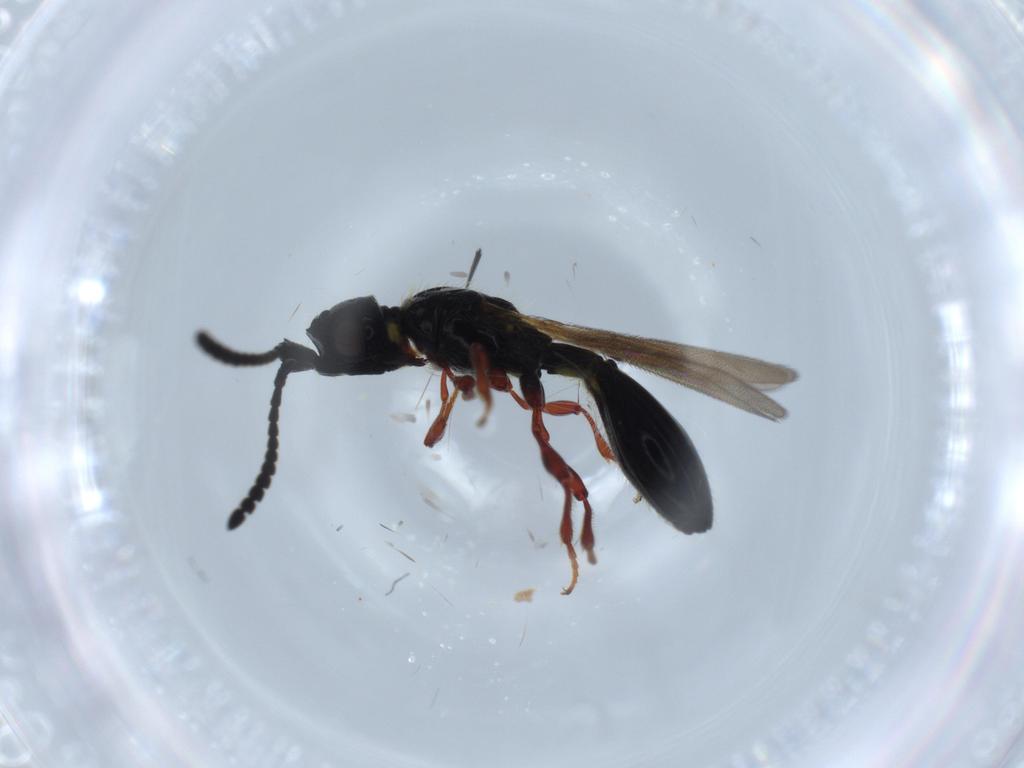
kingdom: Animalia
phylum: Arthropoda
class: Insecta
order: Hymenoptera
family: Diapriidae
